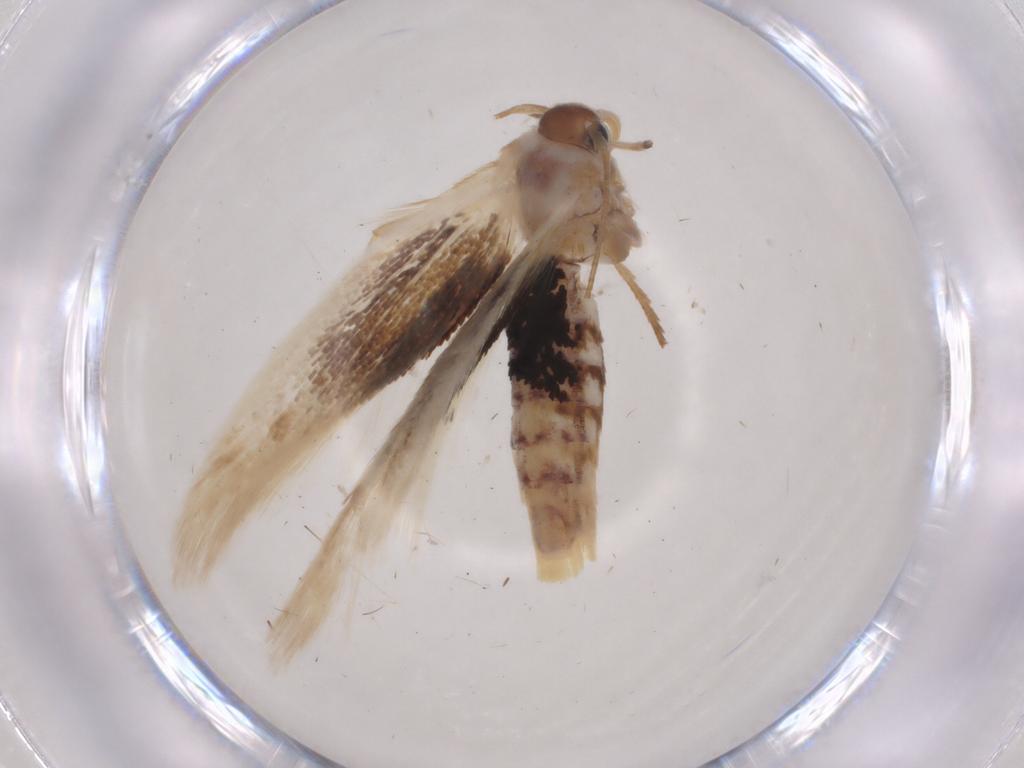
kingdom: Animalia
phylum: Arthropoda
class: Insecta
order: Lepidoptera
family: Scythrididae
